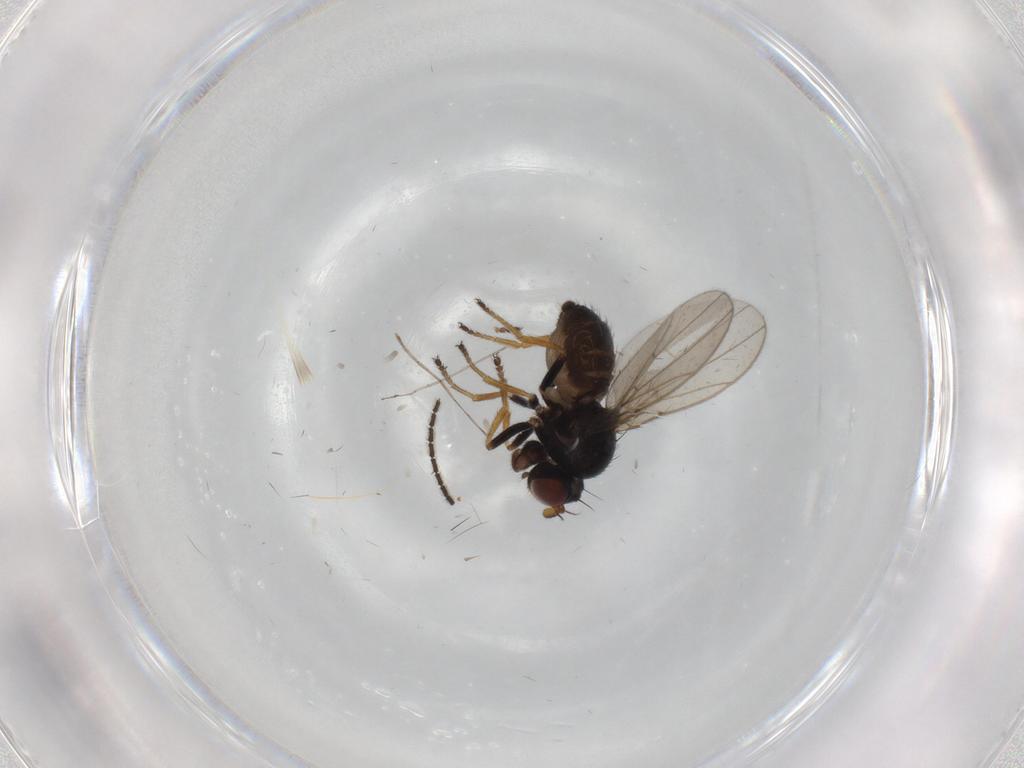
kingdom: Animalia
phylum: Arthropoda
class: Insecta
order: Diptera
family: Ephydridae
